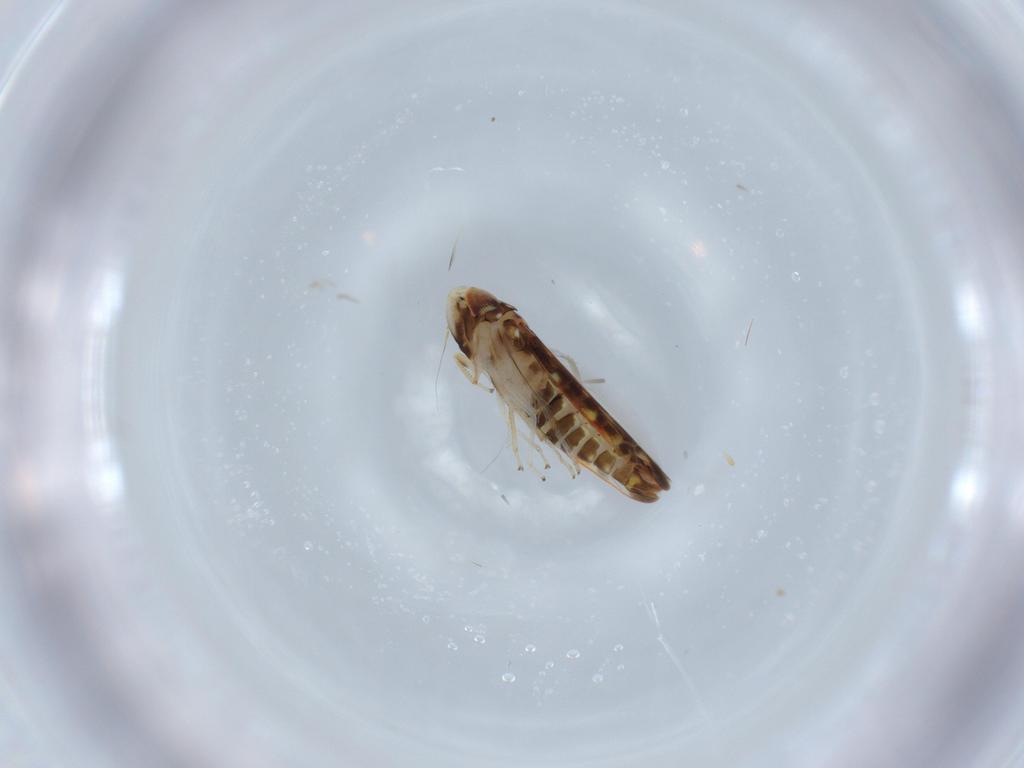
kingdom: Animalia
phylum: Arthropoda
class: Insecta
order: Hemiptera
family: Cicadellidae
